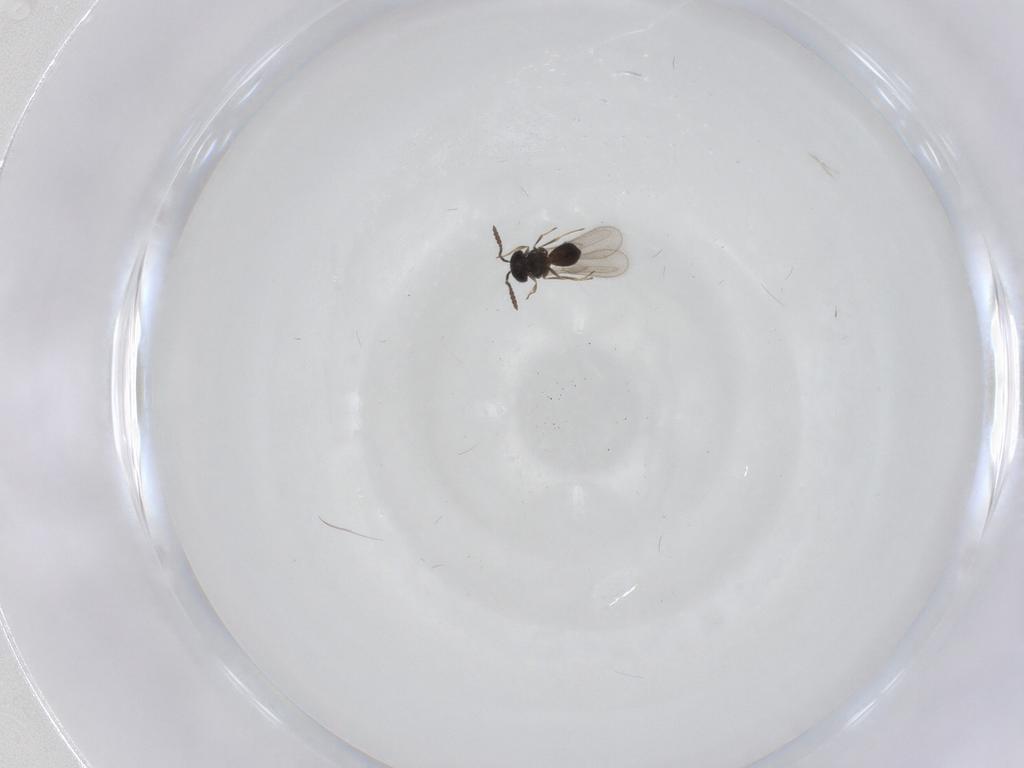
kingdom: Animalia
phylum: Arthropoda
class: Insecta
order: Hymenoptera
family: Scelionidae
